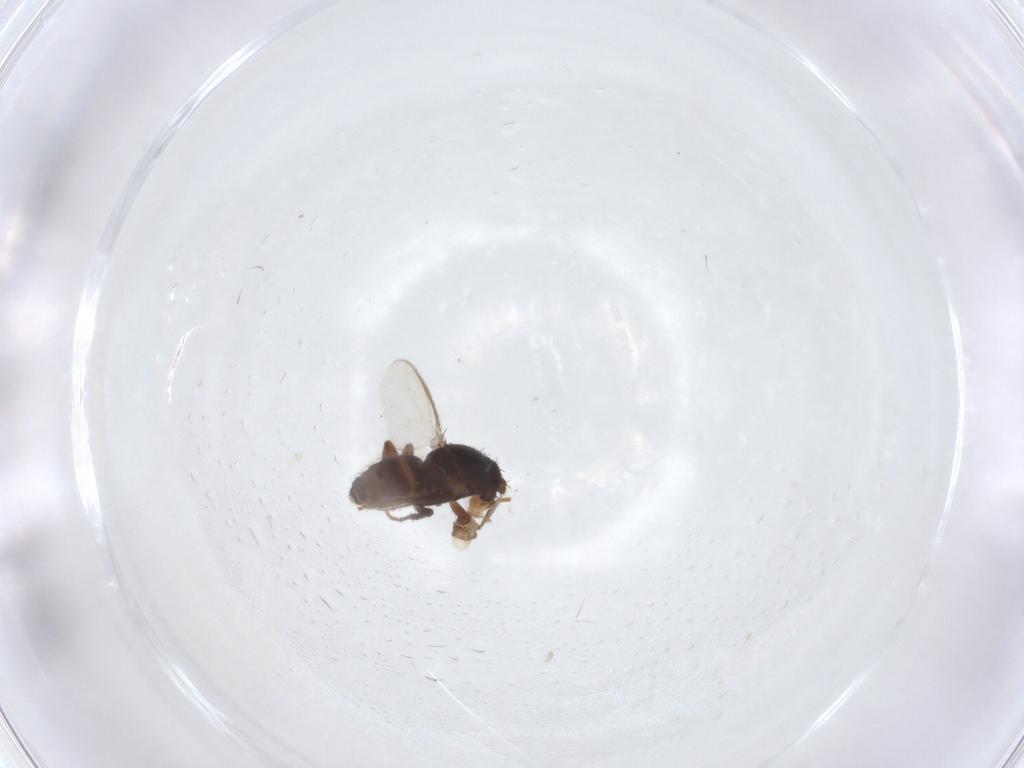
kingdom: Animalia
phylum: Arthropoda
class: Insecta
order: Diptera
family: Sphaeroceridae
